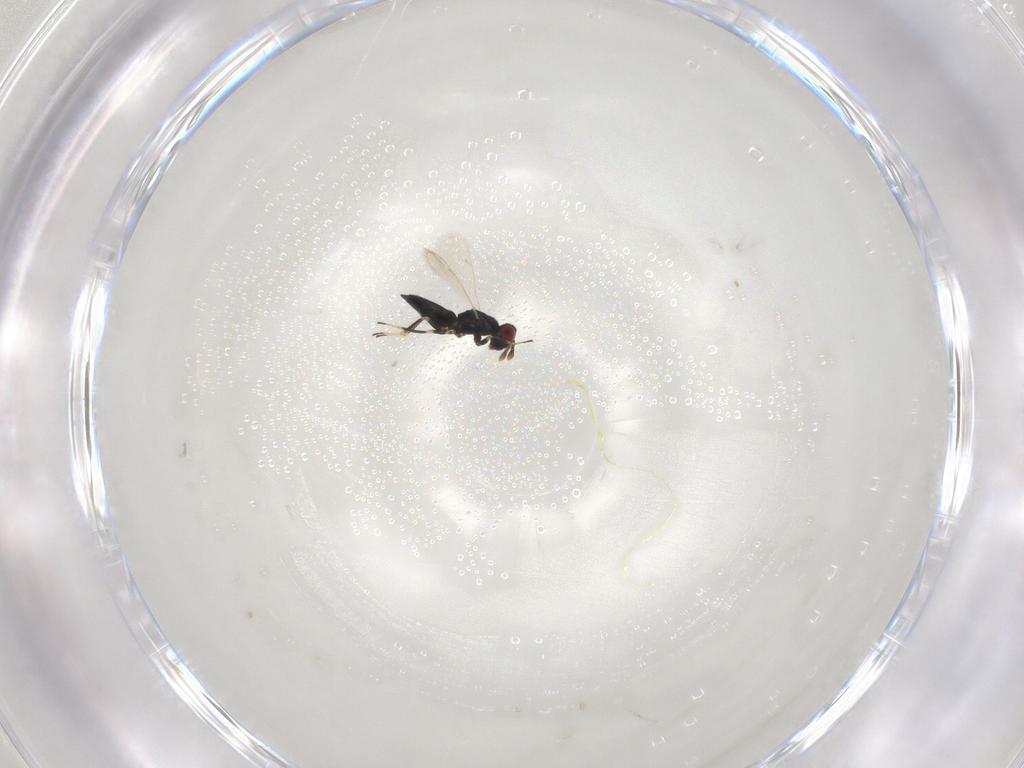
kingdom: Animalia
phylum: Arthropoda
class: Insecta
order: Hymenoptera
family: Tetracampidae
